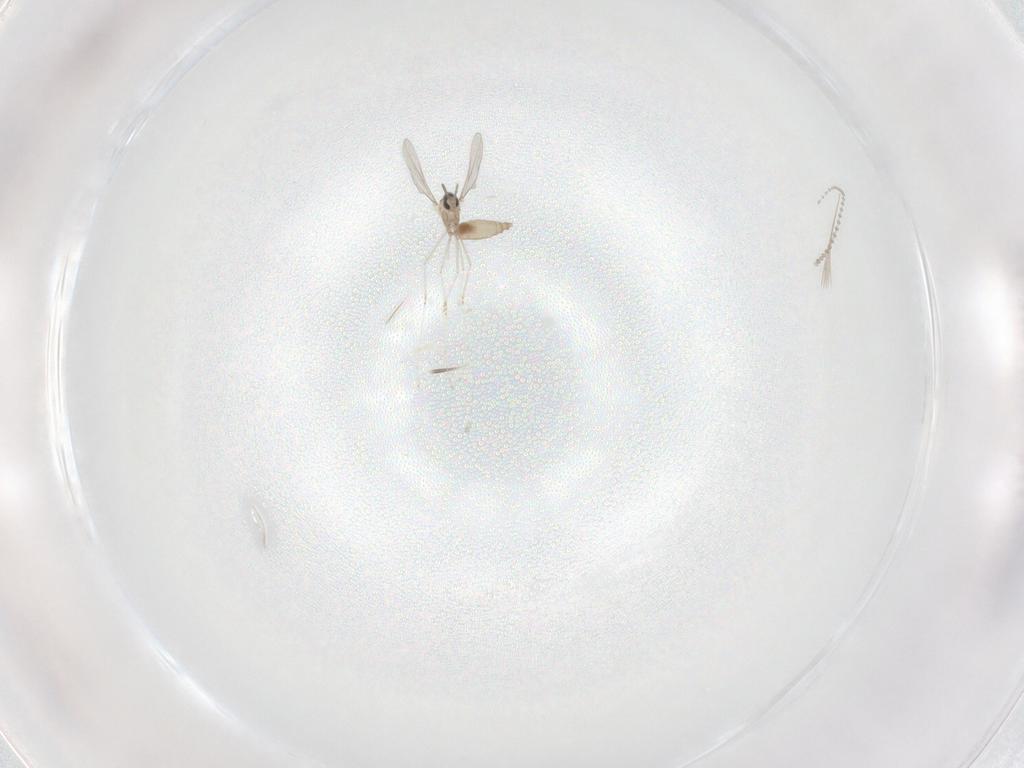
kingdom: Animalia
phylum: Arthropoda
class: Insecta
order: Diptera
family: Cecidomyiidae
